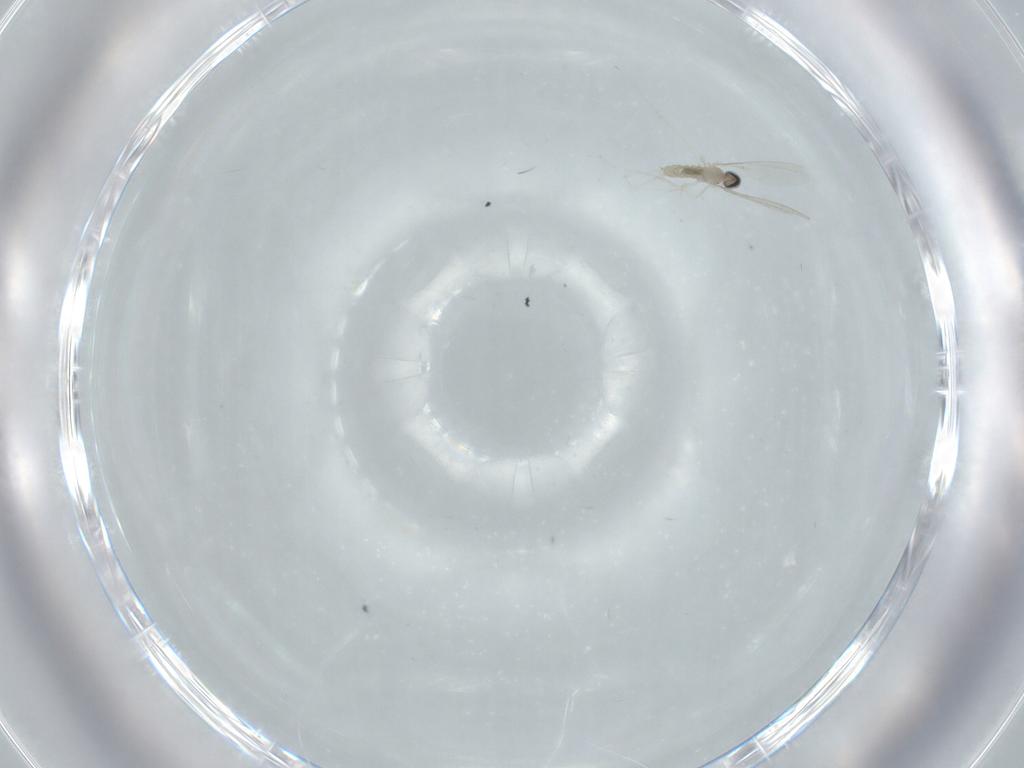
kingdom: Animalia
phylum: Arthropoda
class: Insecta
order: Diptera
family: Cecidomyiidae
